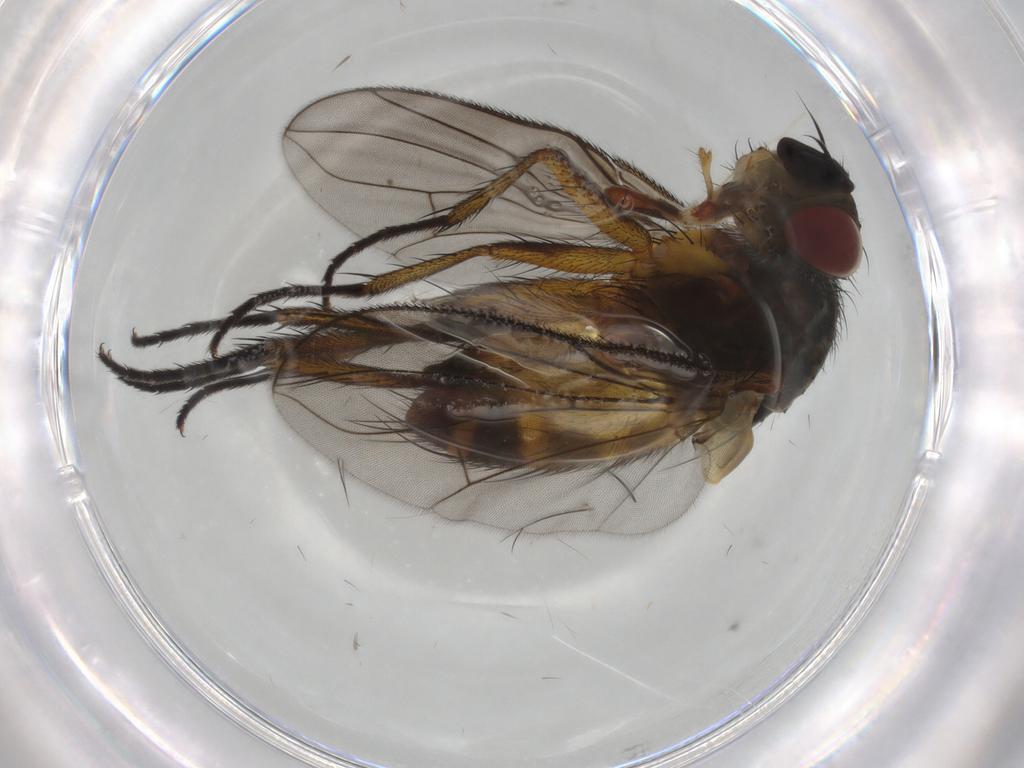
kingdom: Animalia
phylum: Arthropoda
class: Insecta
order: Diptera
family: Tachinidae
